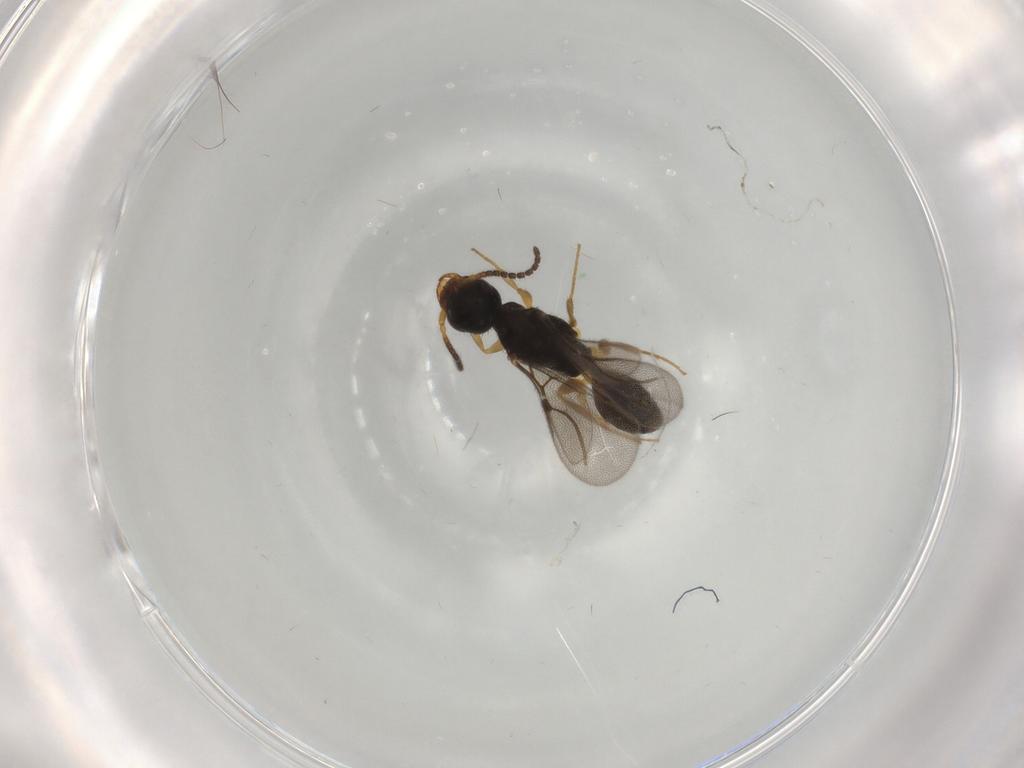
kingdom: Animalia
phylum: Arthropoda
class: Insecta
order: Hymenoptera
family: Bethylidae
